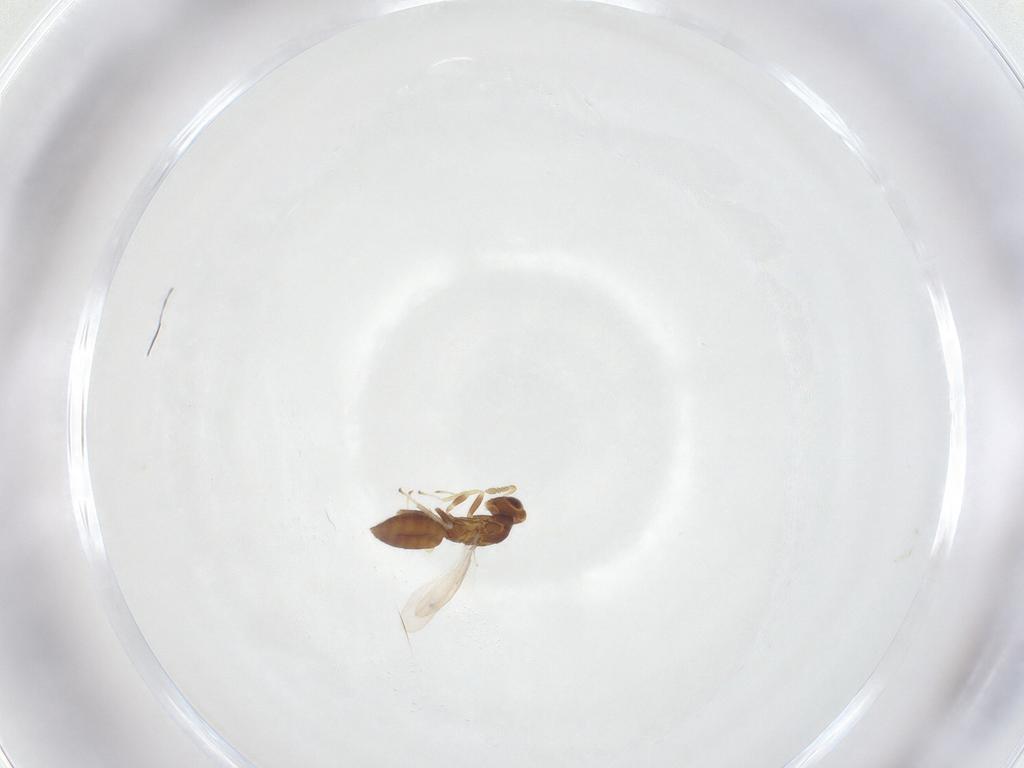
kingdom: Animalia
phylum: Arthropoda
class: Insecta
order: Hymenoptera
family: Eulophidae
